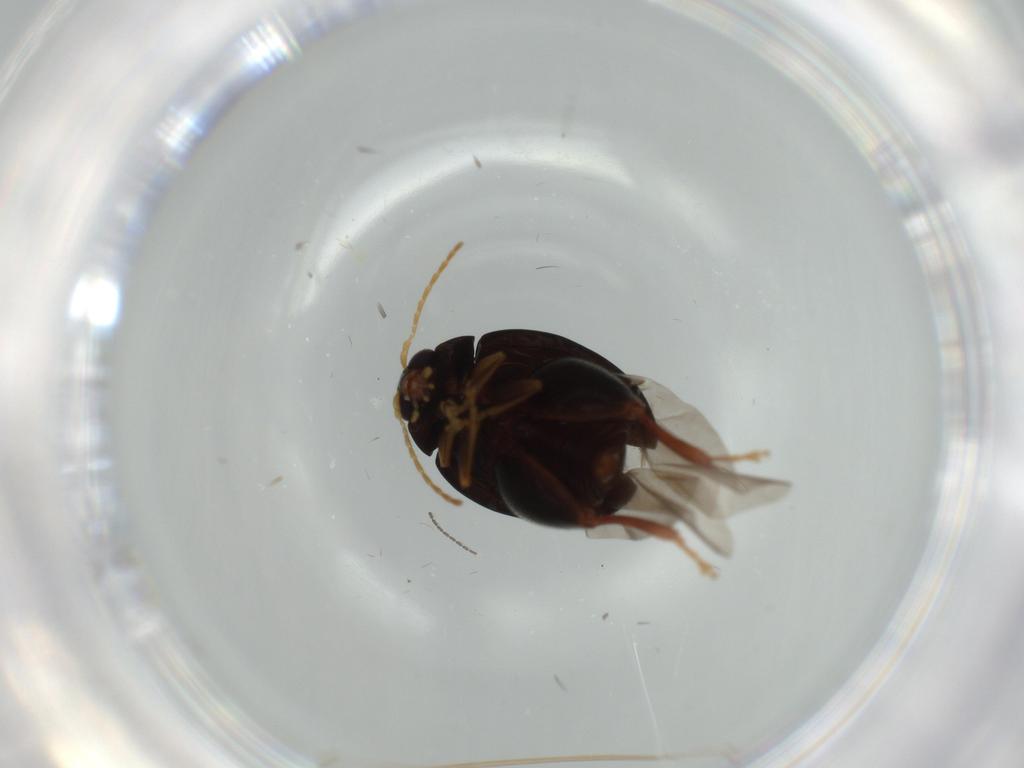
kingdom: Animalia
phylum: Arthropoda
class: Insecta
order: Coleoptera
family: Chrysomelidae
